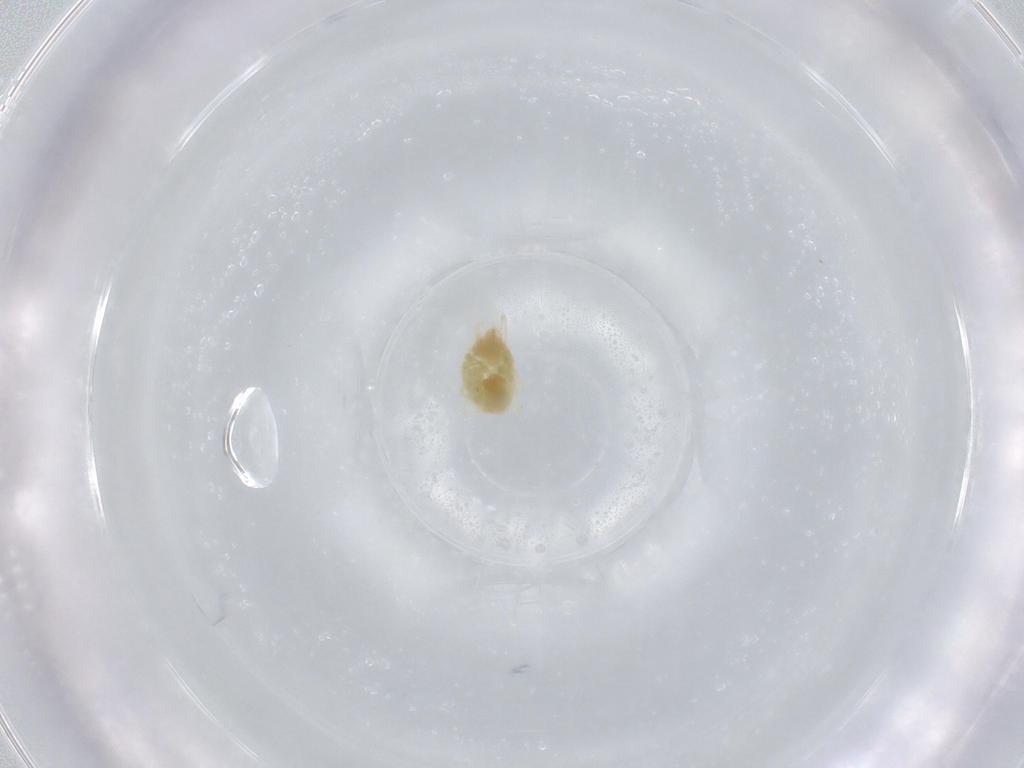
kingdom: Animalia
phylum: Arthropoda
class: Arachnida
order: Trombidiformes
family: Tetranychidae
